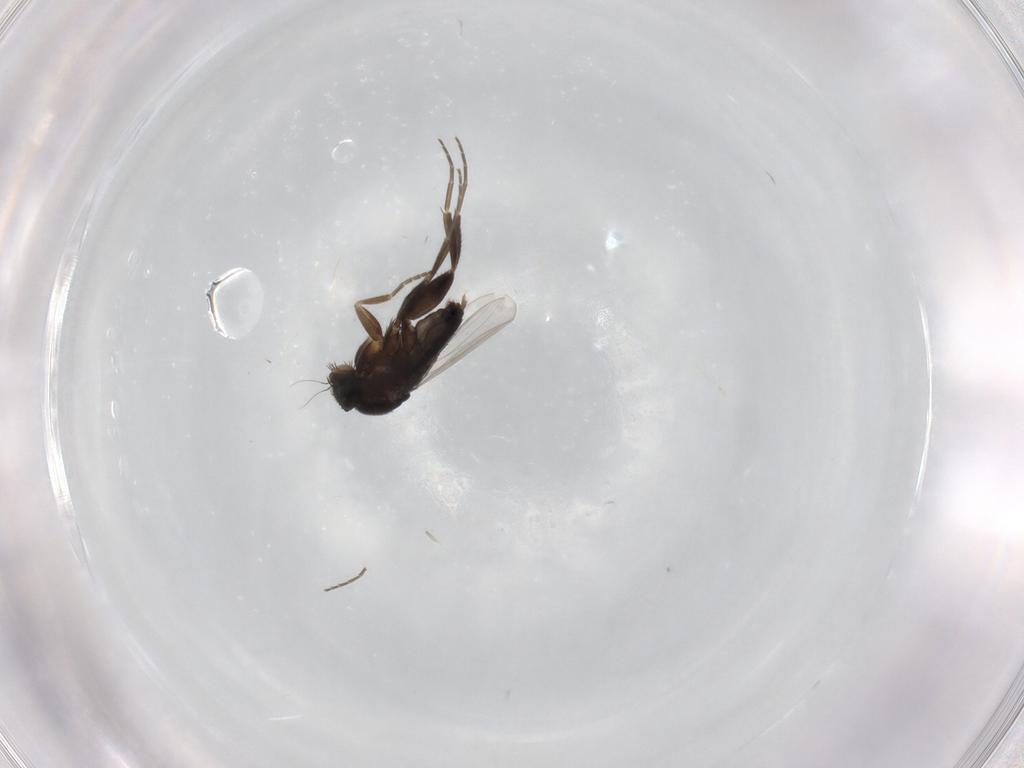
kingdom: Animalia
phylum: Arthropoda
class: Insecta
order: Diptera
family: Phoridae
